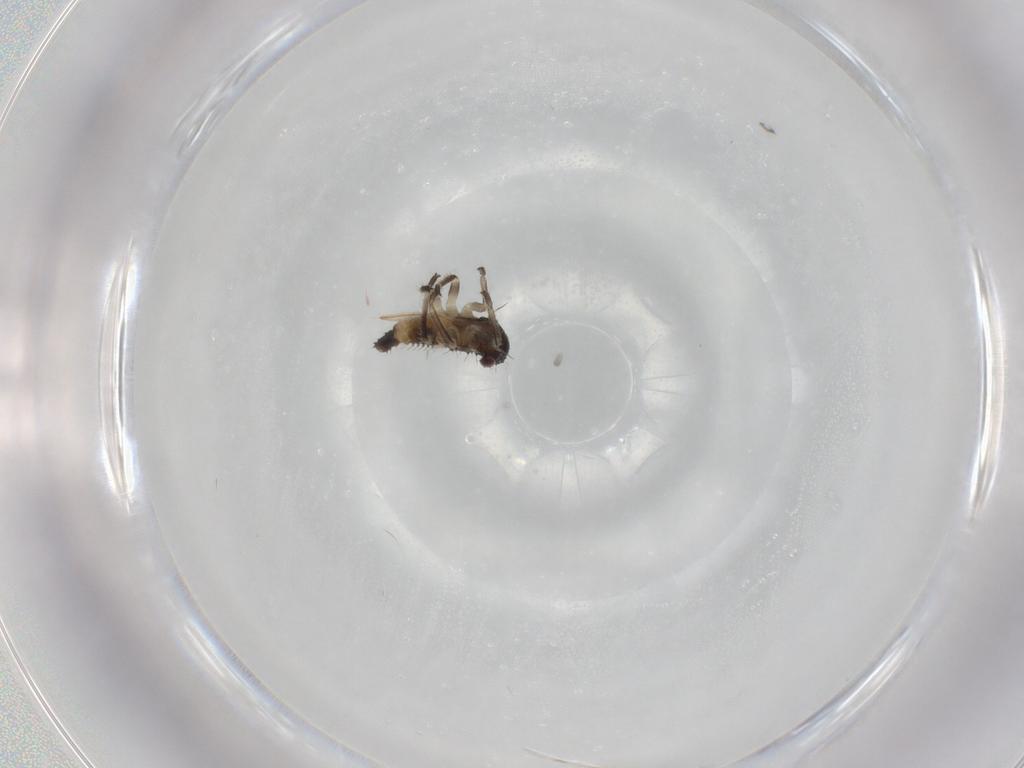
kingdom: Animalia
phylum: Arthropoda
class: Insecta
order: Hemiptera
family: Membracidae
